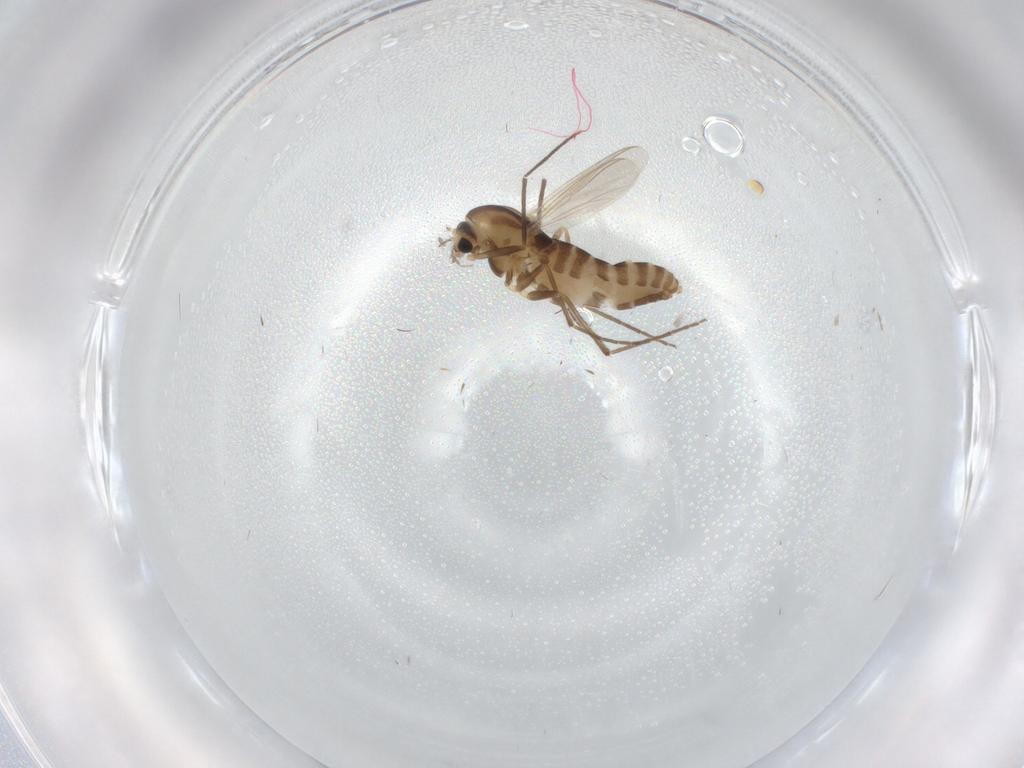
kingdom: Animalia
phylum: Arthropoda
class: Insecta
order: Diptera
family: Chironomidae
